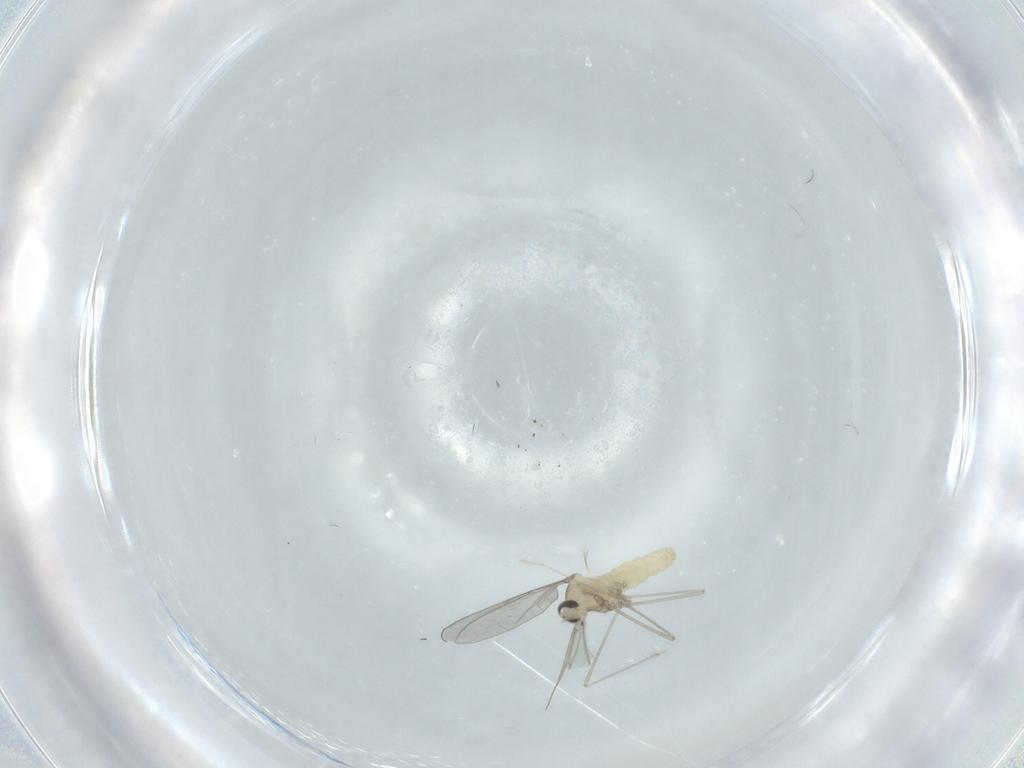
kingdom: Animalia
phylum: Arthropoda
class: Insecta
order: Diptera
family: Cecidomyiidae
